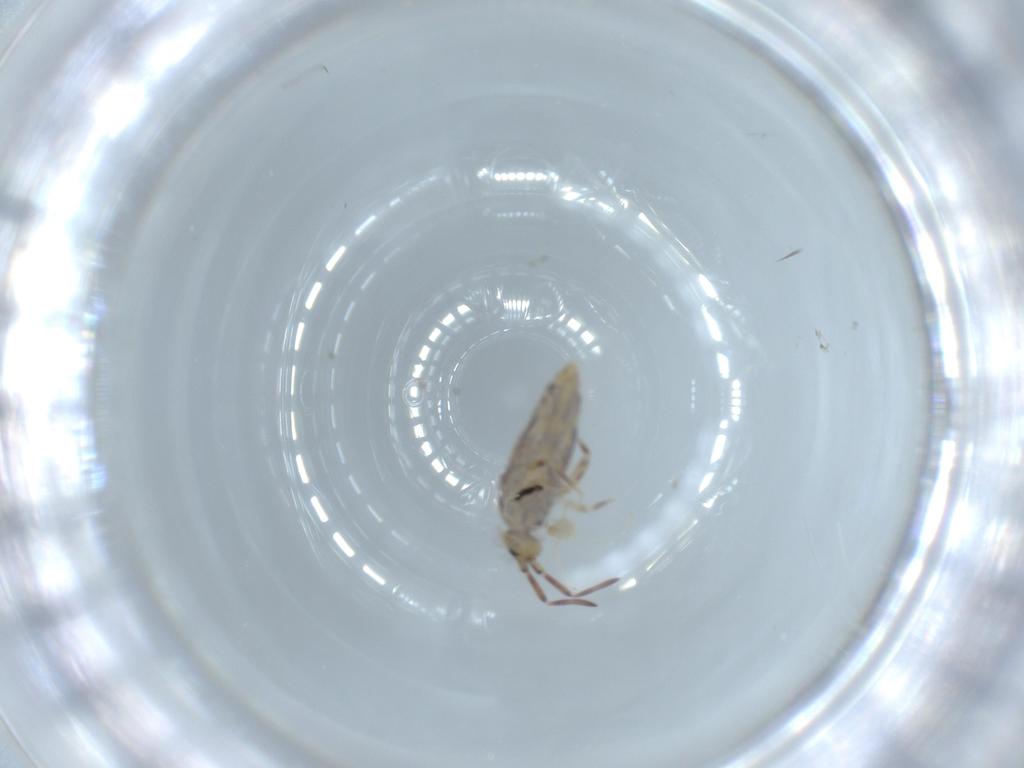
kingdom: Animalia
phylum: Arthropoda
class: Collembola
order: Entomobryomorpha
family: Entomobryidae
